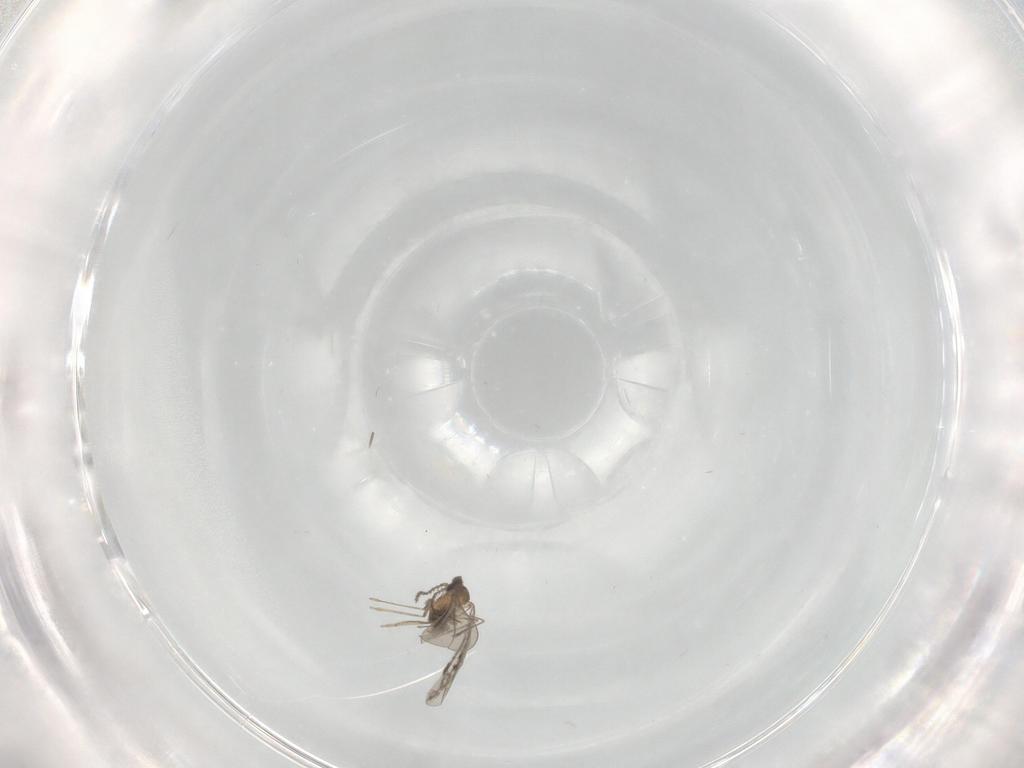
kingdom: Animalia
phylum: Arthropoda
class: Insecta
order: Diptera
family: Cecidomyiidae
